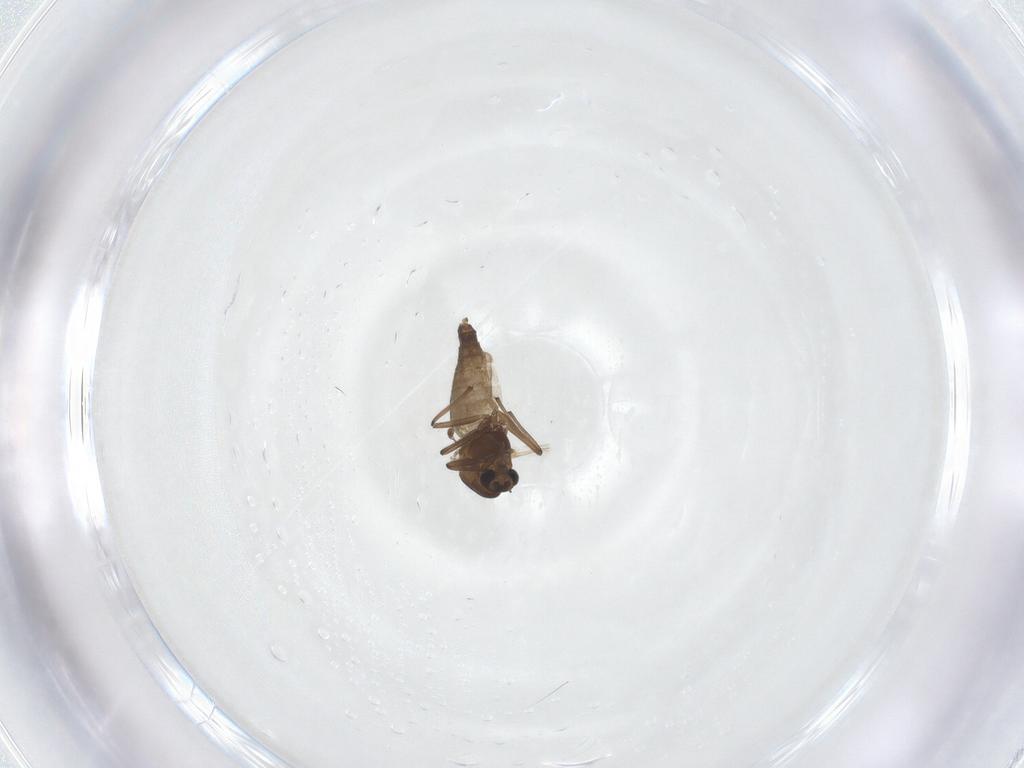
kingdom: Animalia
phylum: Arthropoda
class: Insecta
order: Diptera
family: Chironomidae
